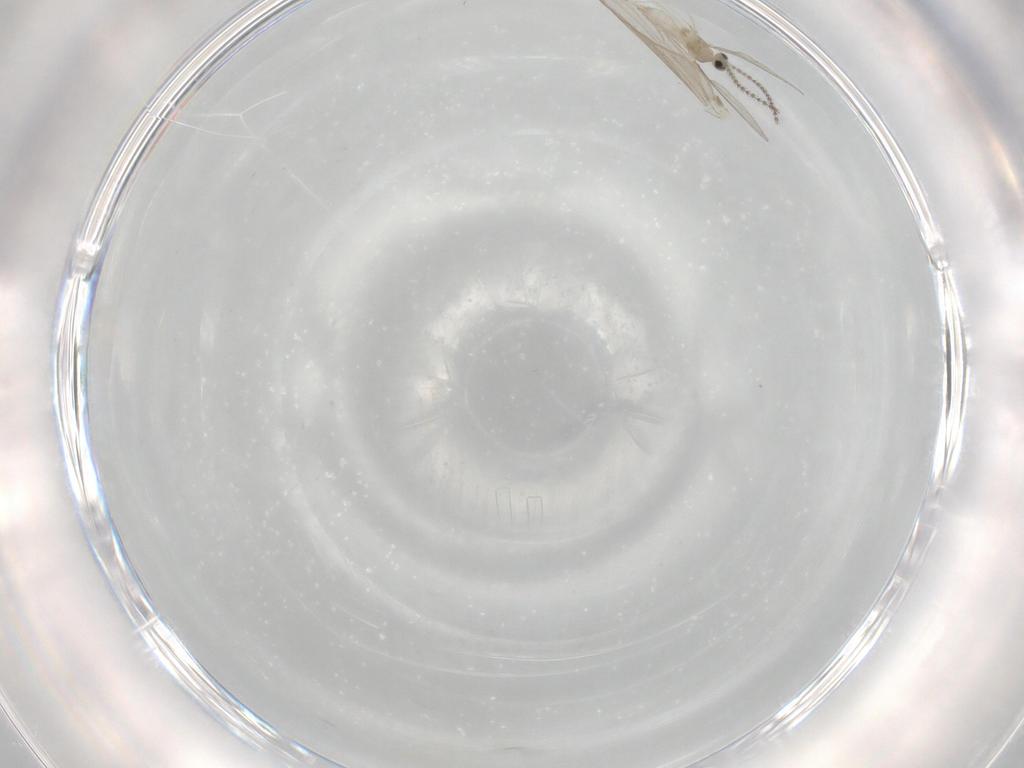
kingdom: Animalia
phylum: Arthropoda
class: Insecta
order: Diptera
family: Cecidomyiidae
